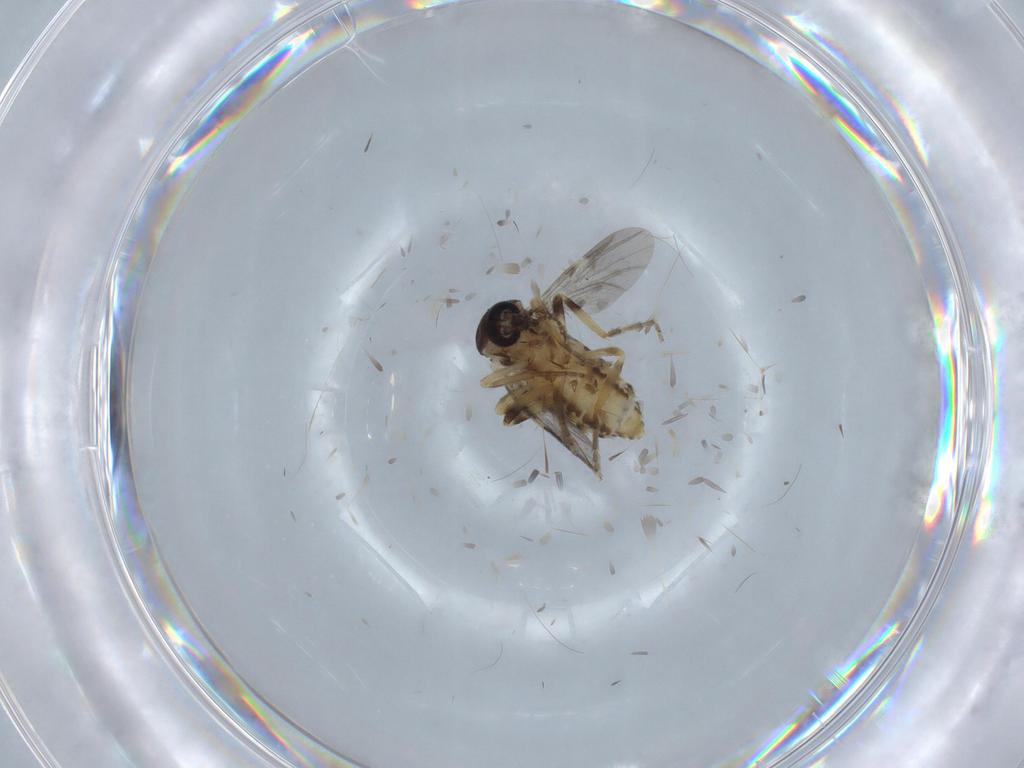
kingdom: Animalia
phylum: Arthropoda
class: Insecta
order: Diptera
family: Ceratopogonidae
